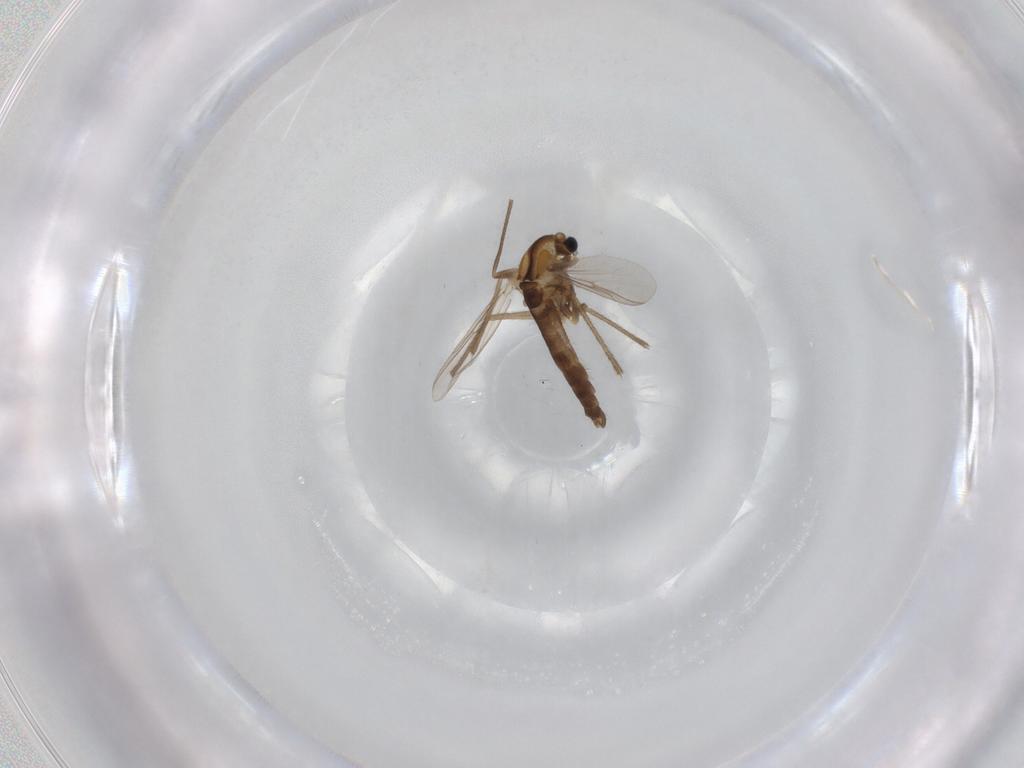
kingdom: Animalia
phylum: Arthropoda
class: Insecta
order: Diptera
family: Chironomidae
